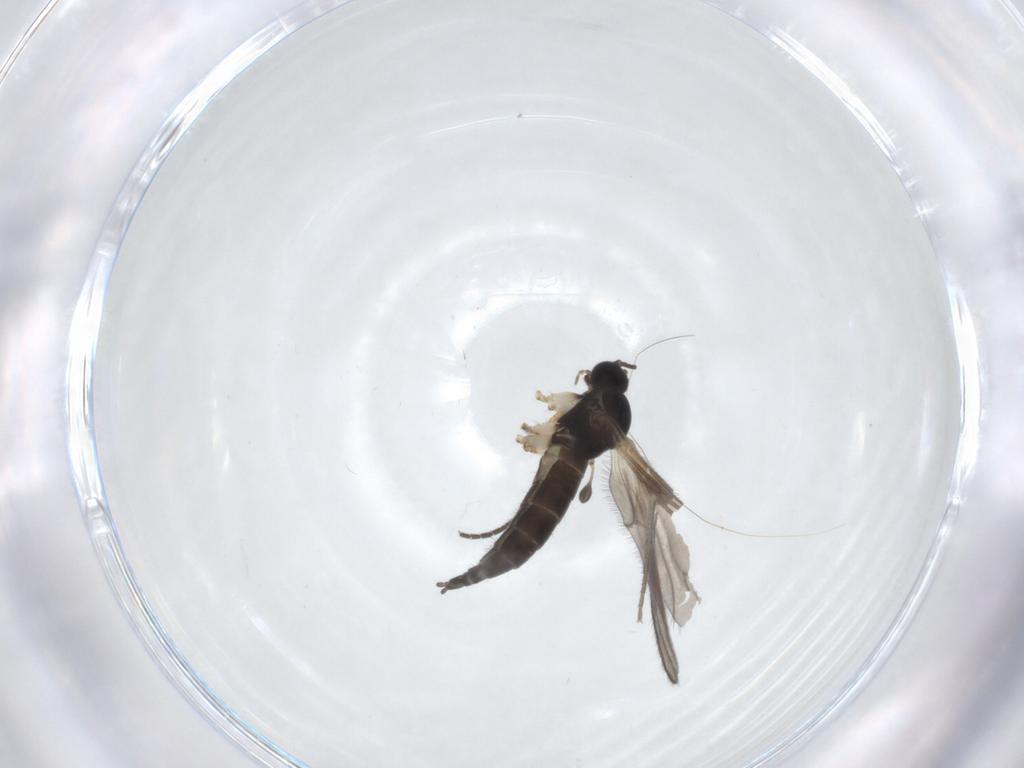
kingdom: Animalia
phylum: Arthropoda
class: Insecta
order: Diptera
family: Sciaridae
